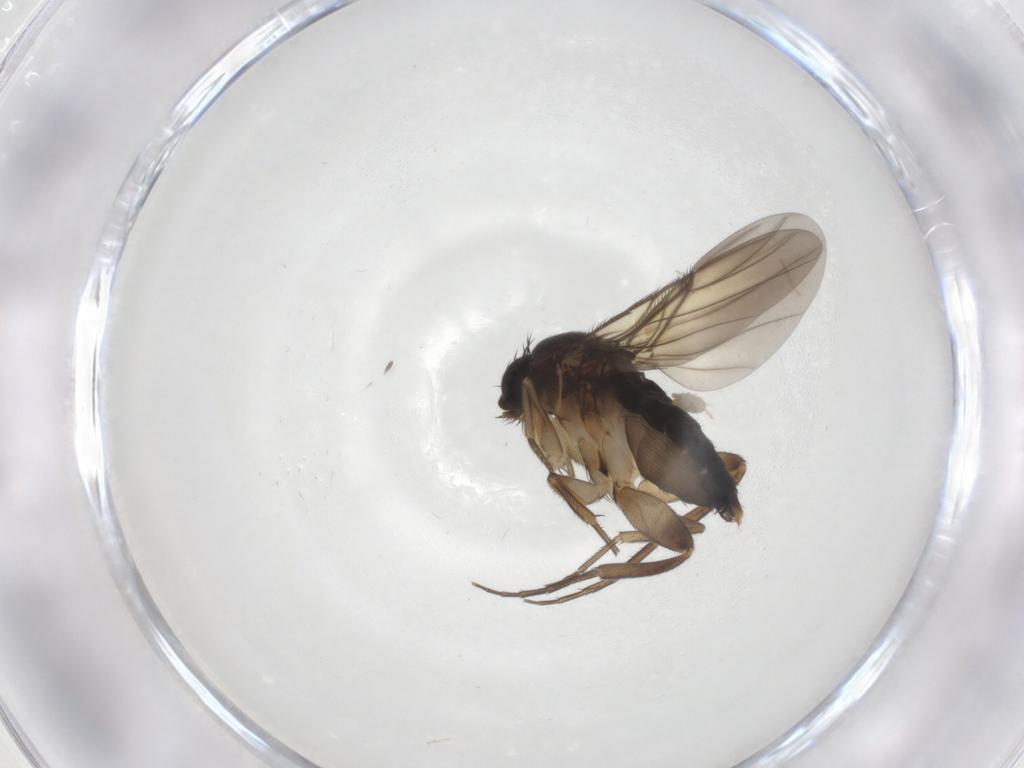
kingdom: Animalia
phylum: Arthropoda
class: Insecta
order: Diptera
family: Phoridae
